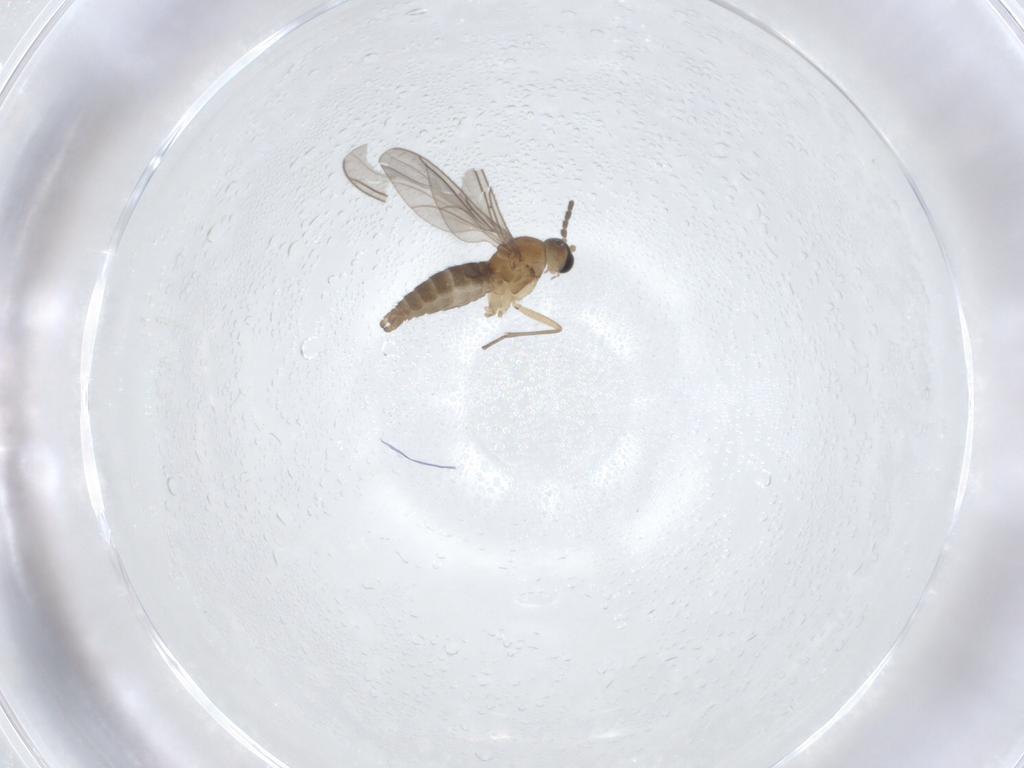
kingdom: Animalia
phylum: Arthropoda
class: Insecta
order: Diptera
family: Sciaridae
